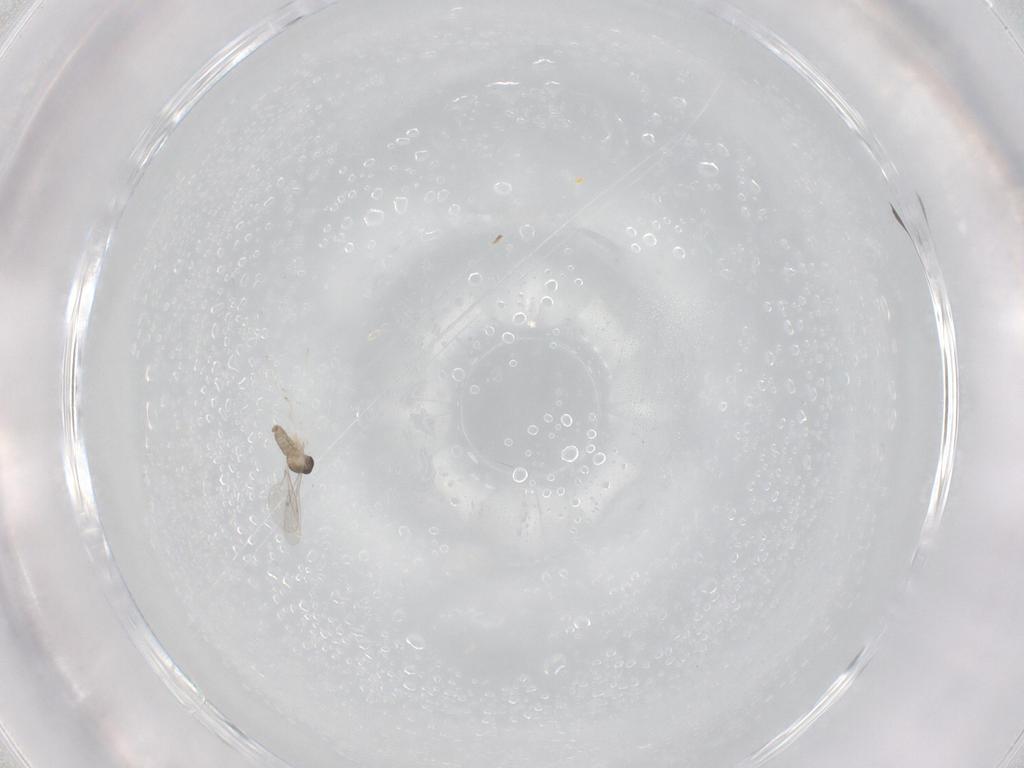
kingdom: Animalia
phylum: Arthropoda
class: Insecta
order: Diptera
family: Cecidomyiidae
